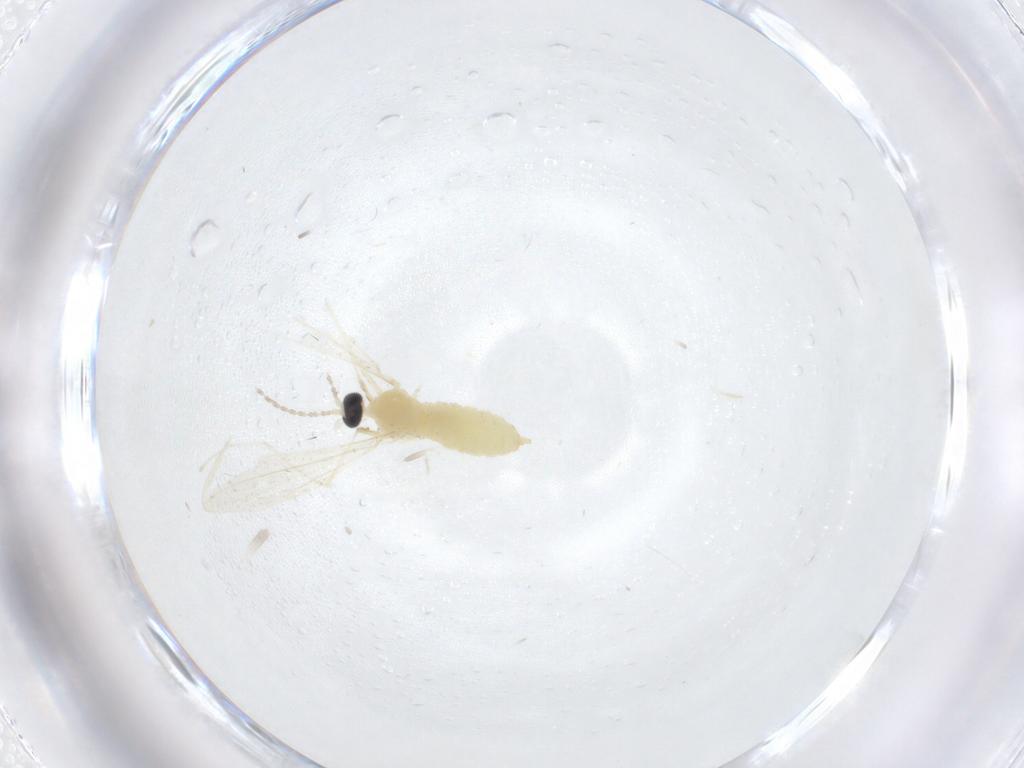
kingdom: Animalia
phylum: Arthropoda
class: Insecta
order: Diptera
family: Cecidomyiidae
